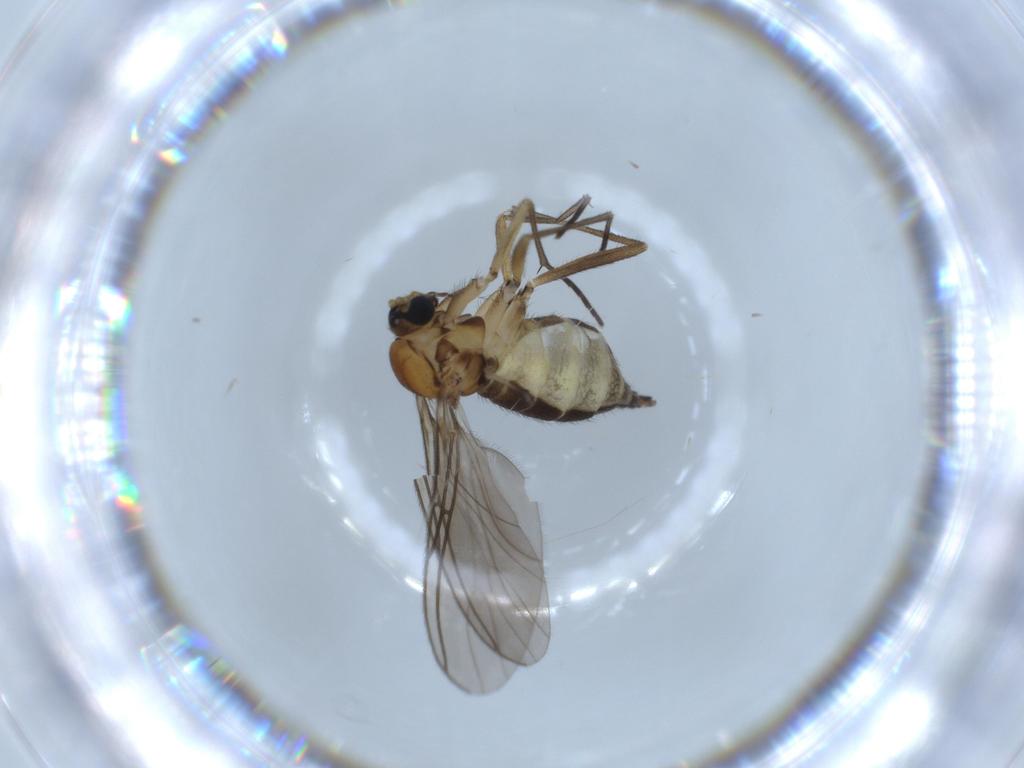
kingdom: Animalia
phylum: Arthropoda
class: Insecta
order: Diptera
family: Sciaridae
